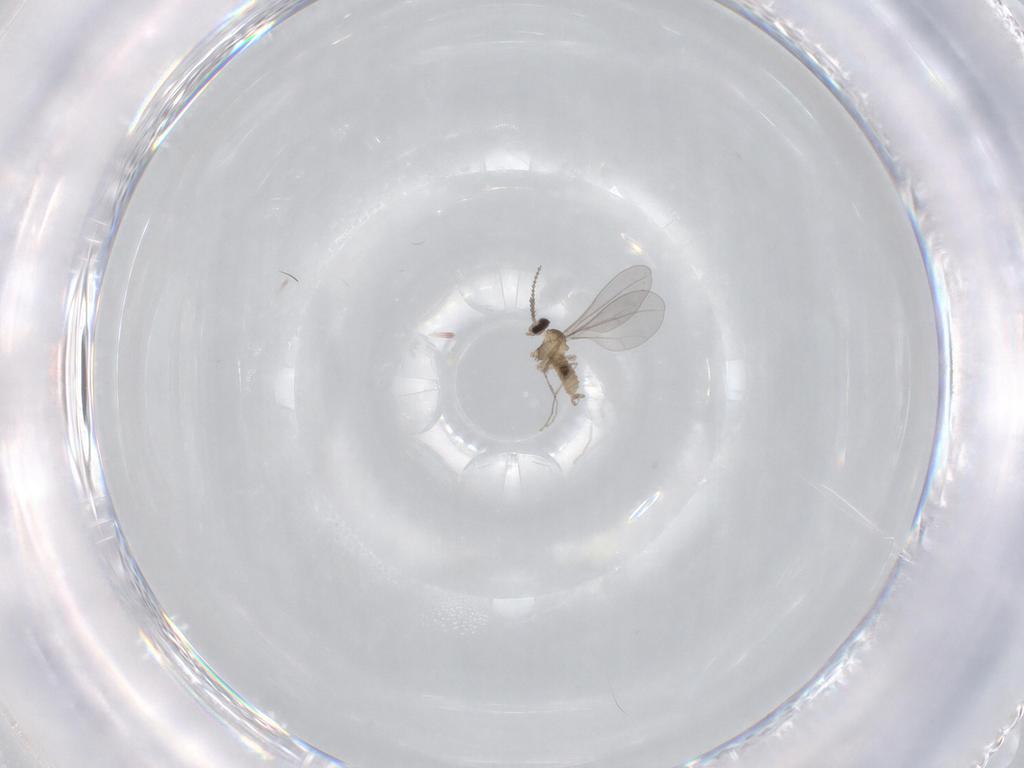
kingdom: Animalia
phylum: Arthropoda
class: Insecta
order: Diptera
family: Cecidomyiidae
